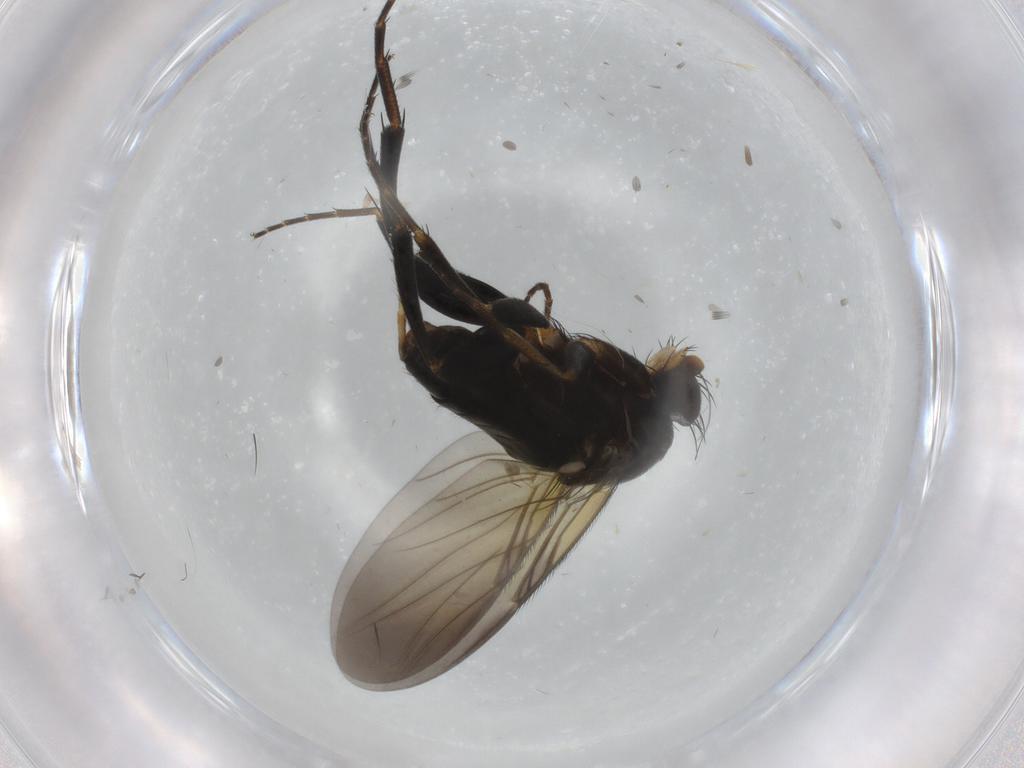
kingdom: Animalia
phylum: Arthropoda
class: Insecta
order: Diptera
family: Phoridae
